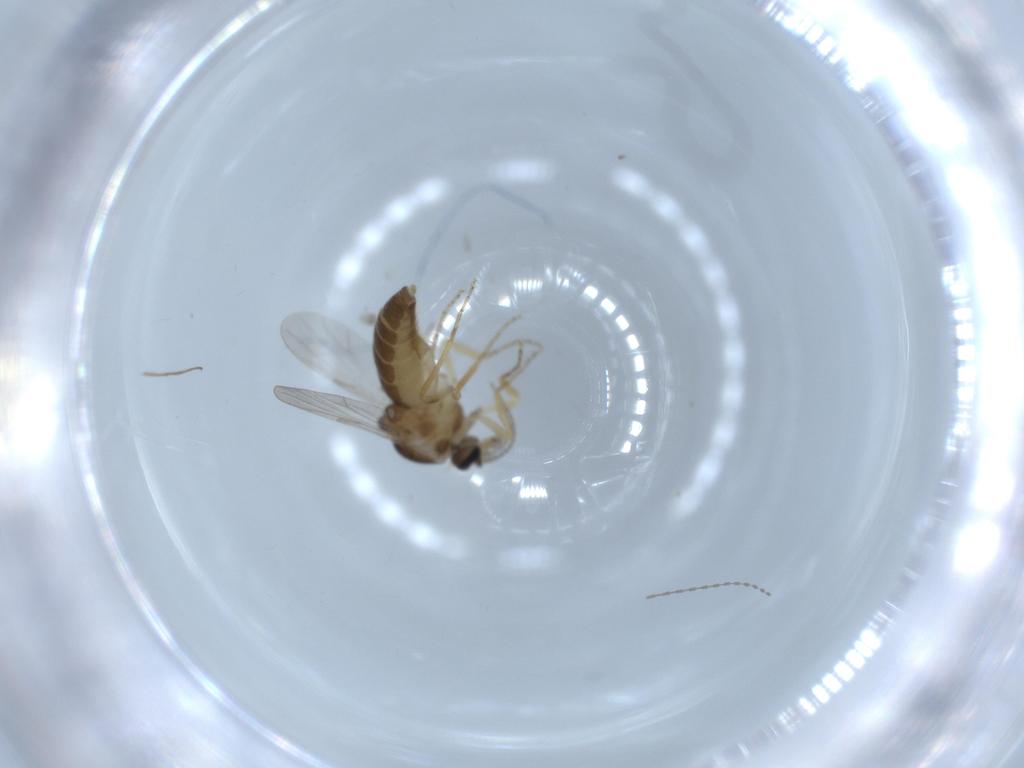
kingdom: Animalia
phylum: Arthropoda
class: Insecta
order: Diptera
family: Ceratopogonidae
